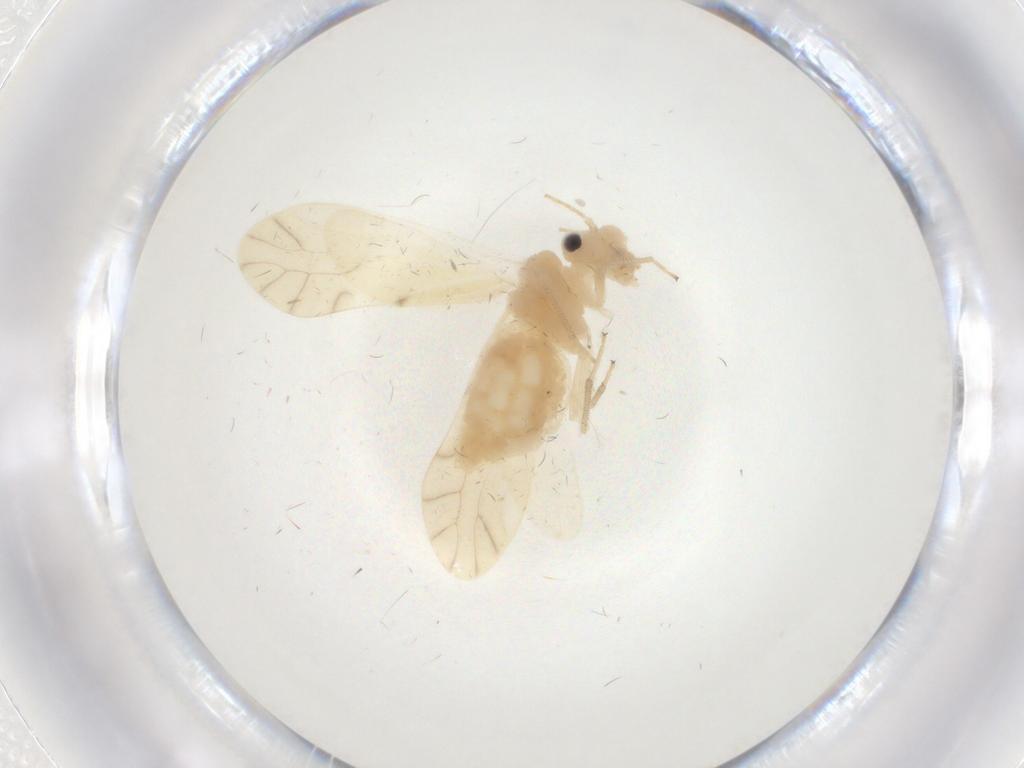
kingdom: Animalia
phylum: Arthropoda
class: Insecta
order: Psocodea
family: Caeciliusidae
